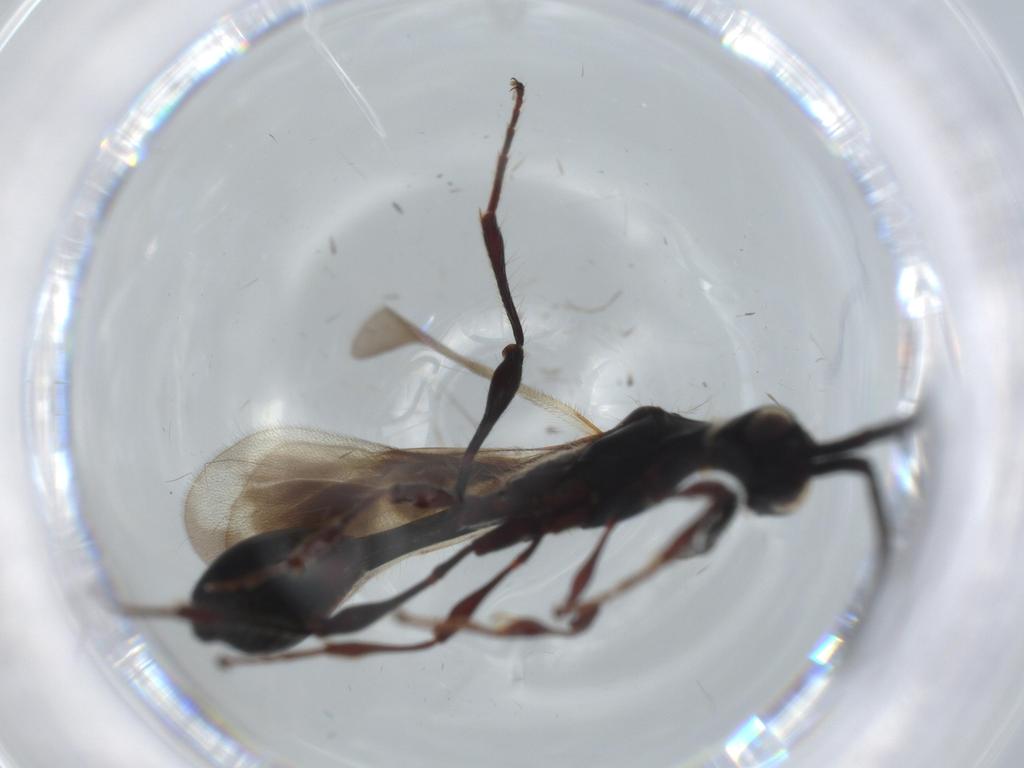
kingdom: Animalia
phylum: Arthropoda
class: Insecta
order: Hymenoptera
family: Diapriidae
